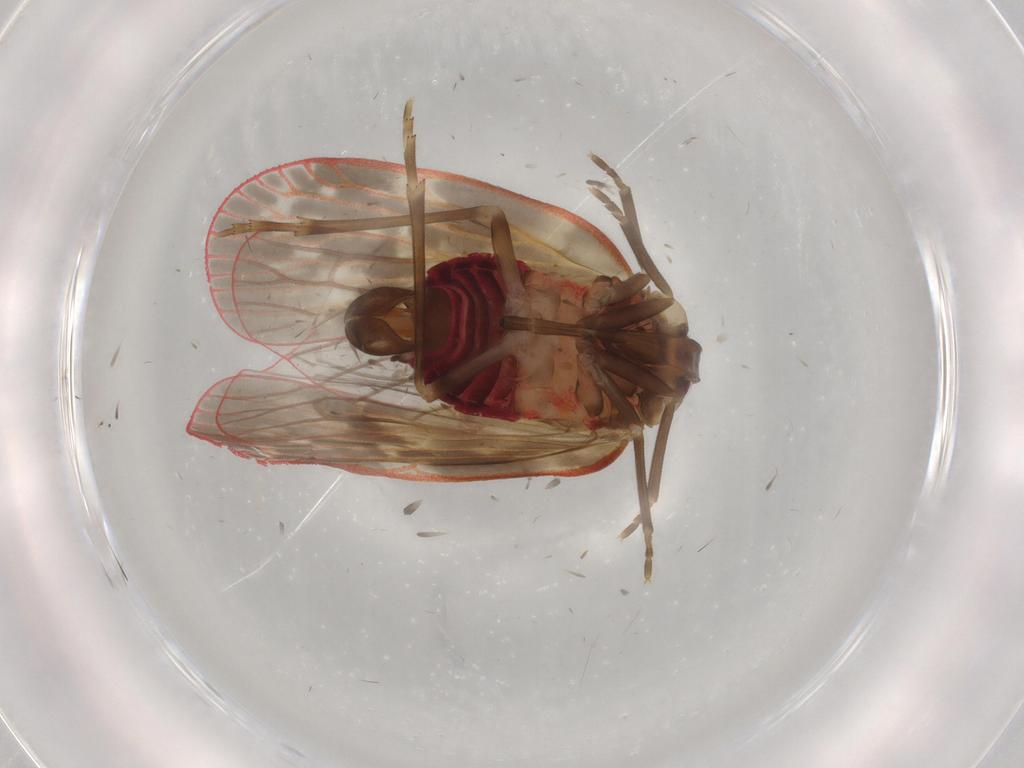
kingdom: Animalia
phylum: Arthropoda
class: Insecta
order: Hemiptera
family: Achilidae
